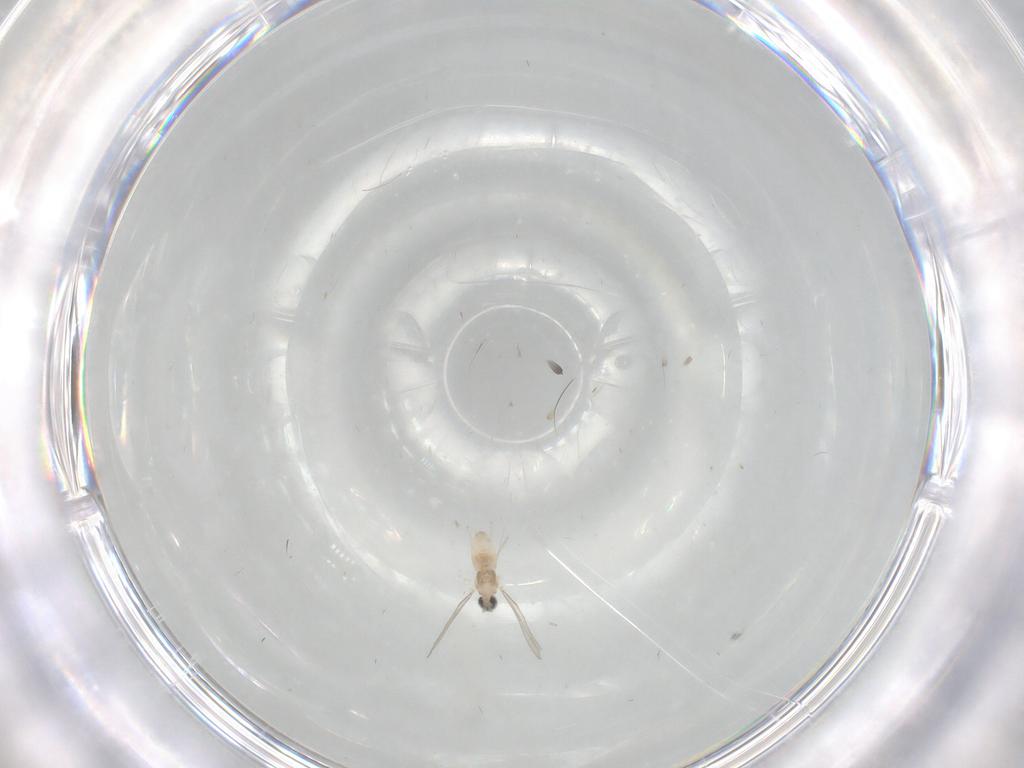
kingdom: Animalia
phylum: Arthropoda
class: Insecta
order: Diptera
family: Cecidomyiidae
